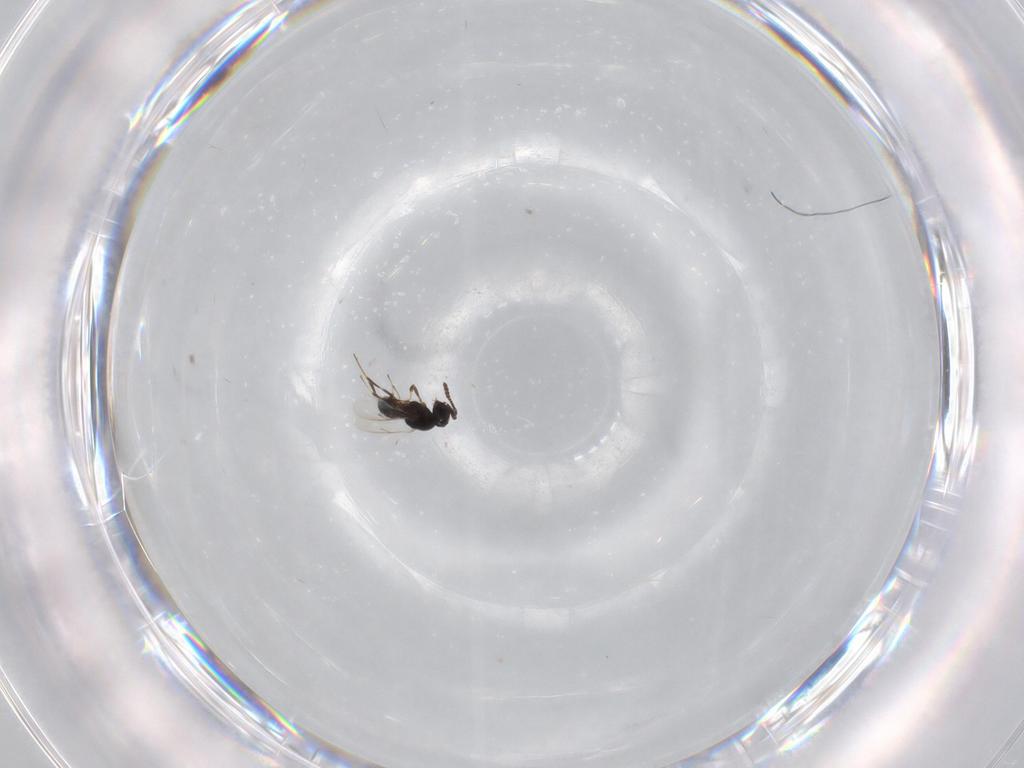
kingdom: Animalia
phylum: Arthropoda
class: Insecta
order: Hymenoptera
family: Scelionidae
